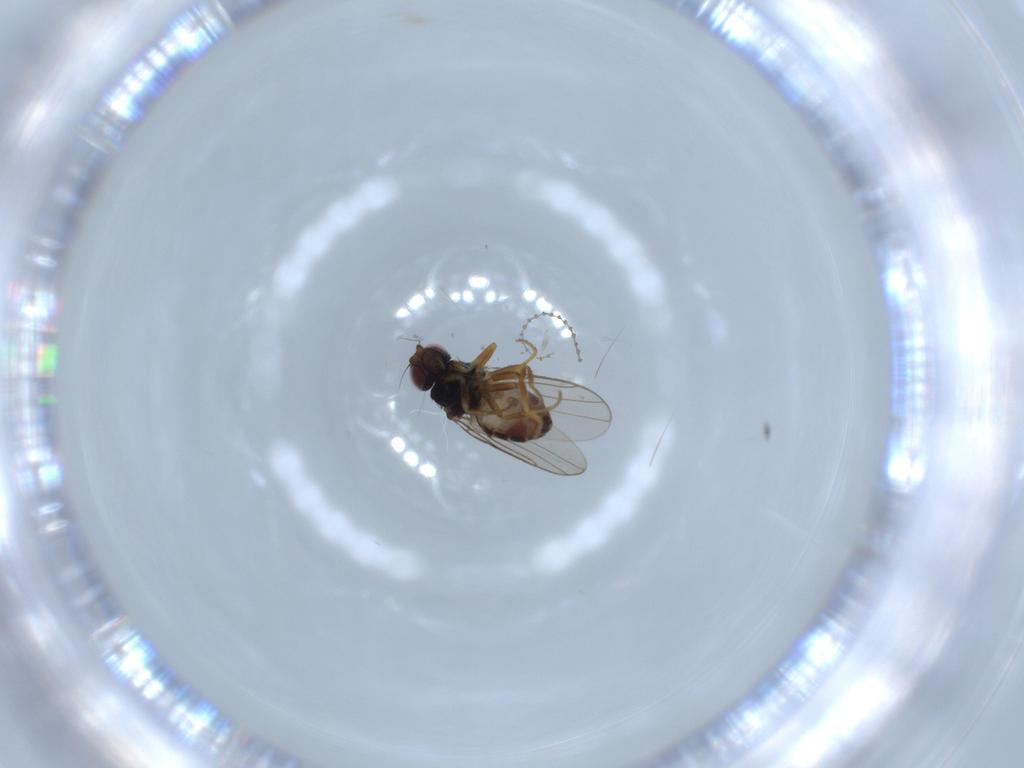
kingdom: Animalia
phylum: Arthropoda
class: Insecta
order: Diptera
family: Chloropidae
